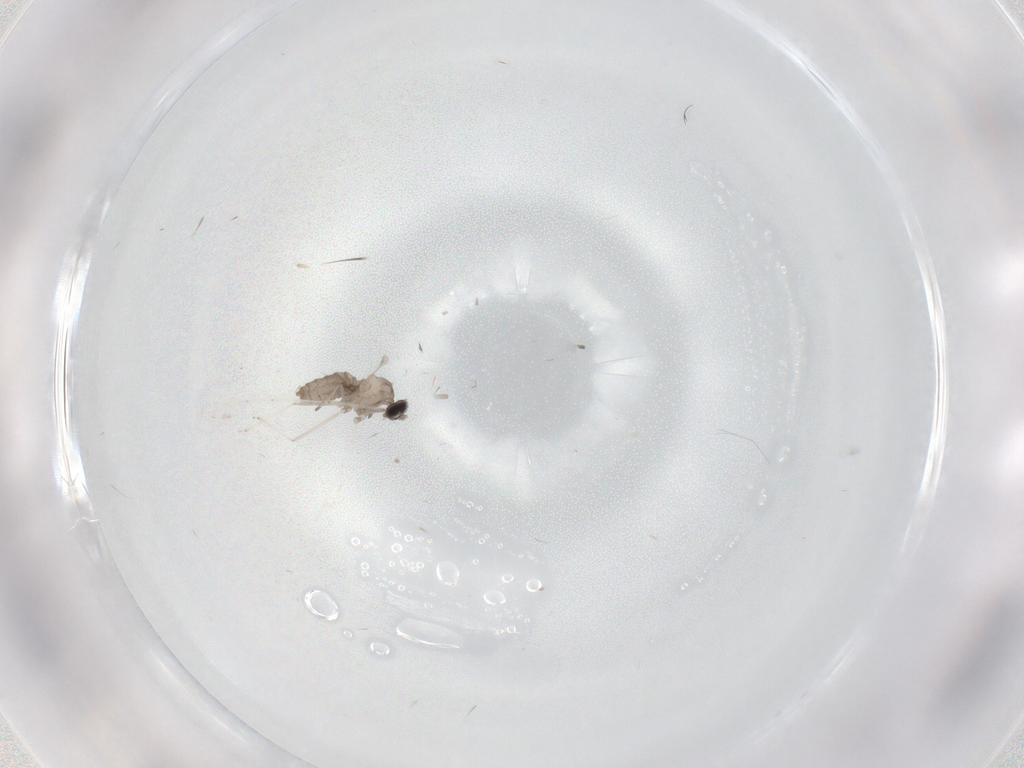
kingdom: Animalia
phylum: Arthropoda
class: Insecta
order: Diptera
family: Cecidomyiidae
